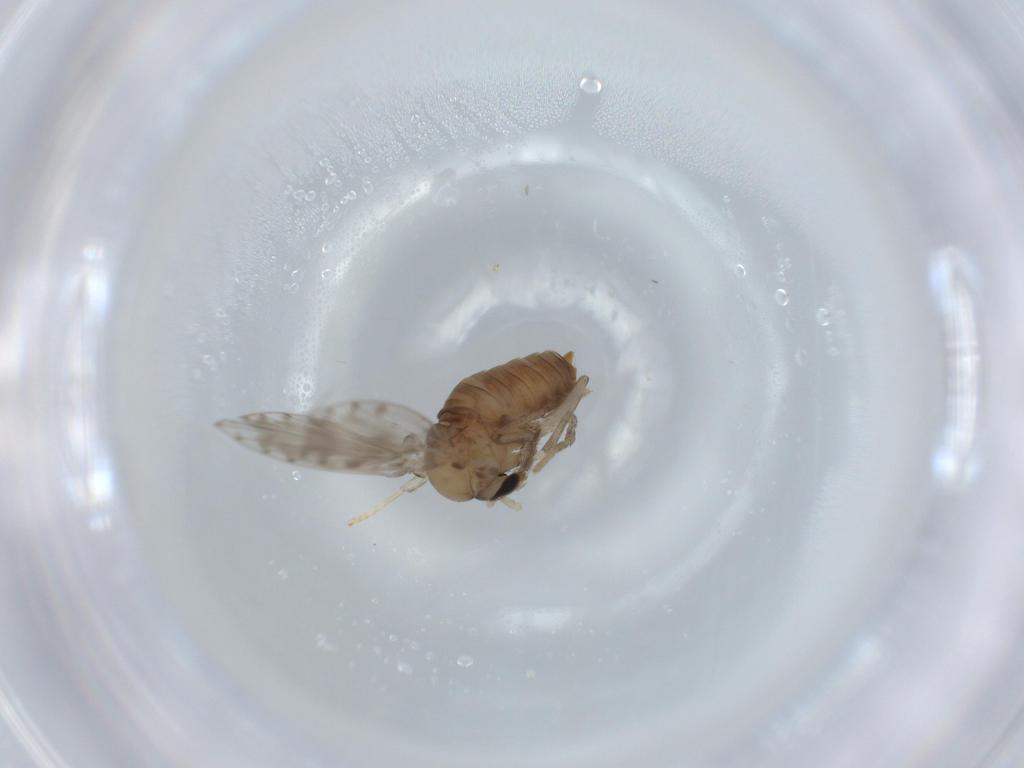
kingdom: Animalia
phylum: Arthropoda
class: Insecta
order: Diptera
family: Phoridae
